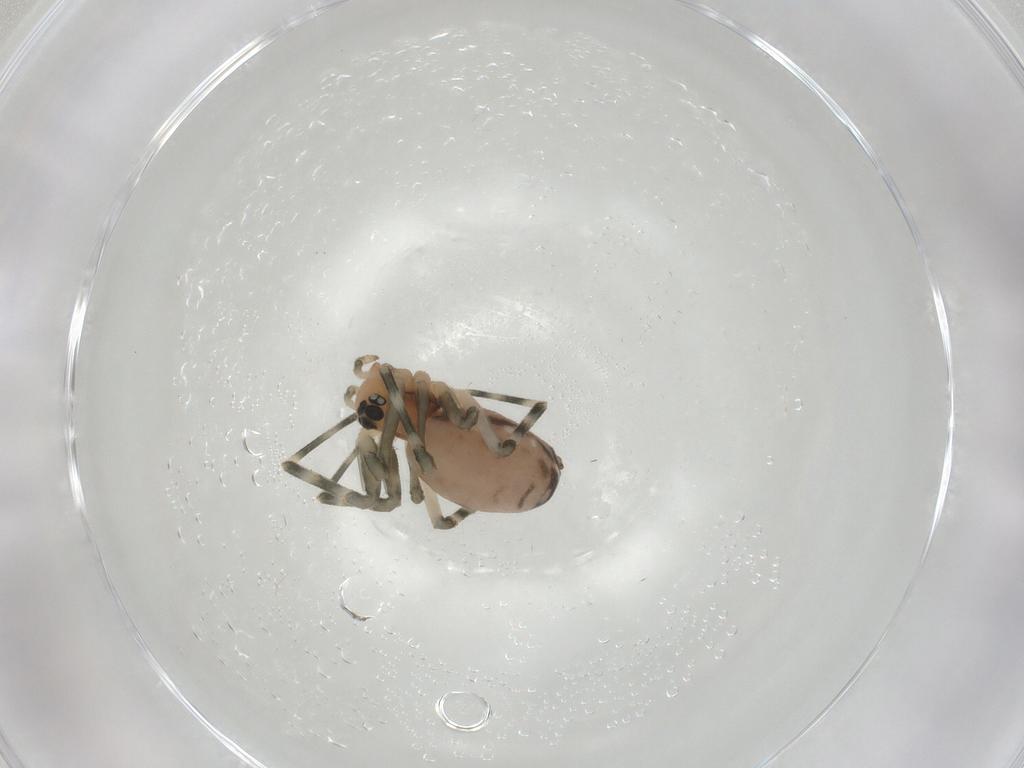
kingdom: Animalia
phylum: Arthropoda
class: Arachnida
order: Araneae
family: Linyphiidae
